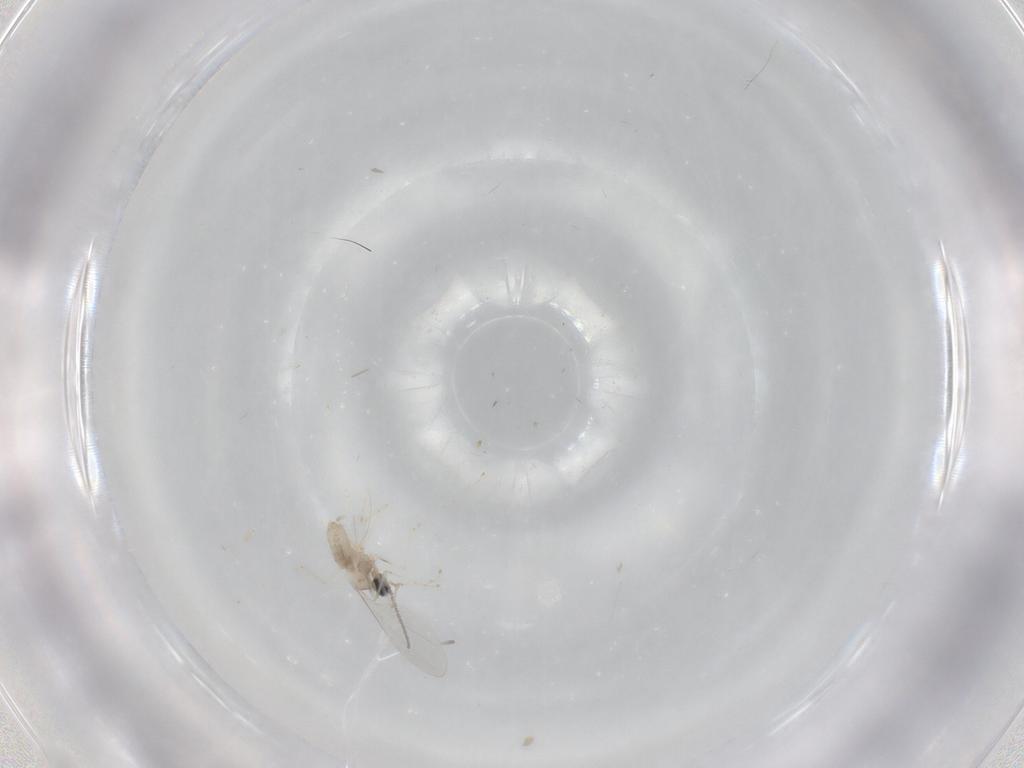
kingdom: Animalia
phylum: Arthropoda
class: Insecta
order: Diptera
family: Cecidomyiidae
